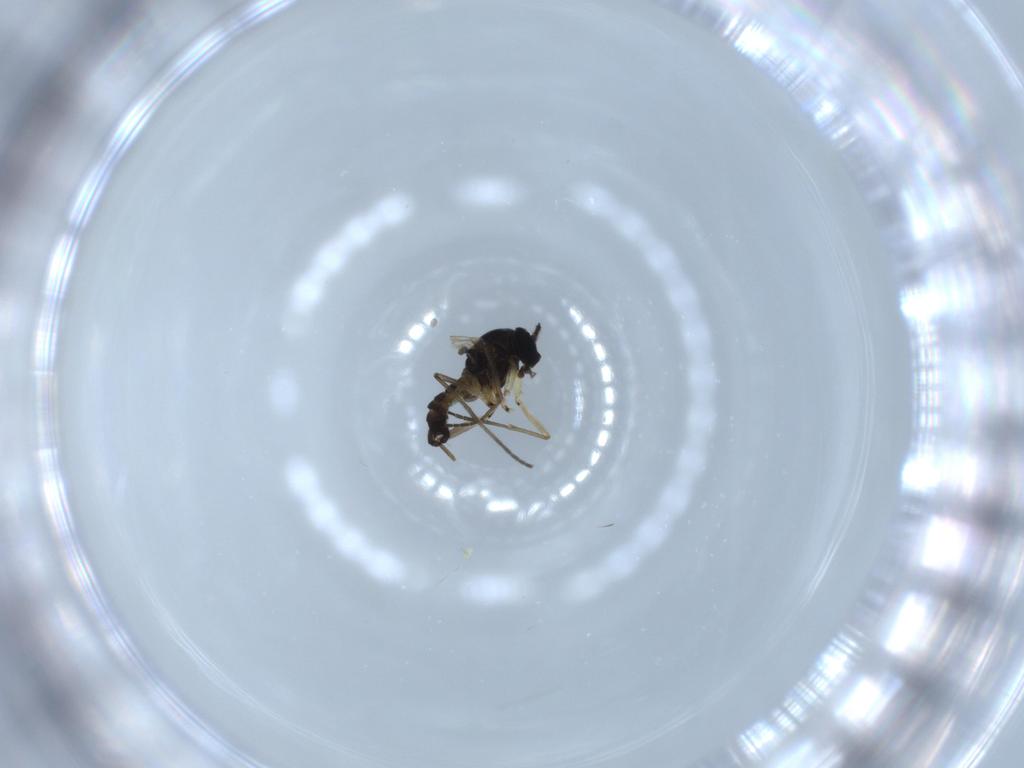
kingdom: Animalia
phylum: Arthropoda
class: Insecta
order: Diptera
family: Sciaridae
